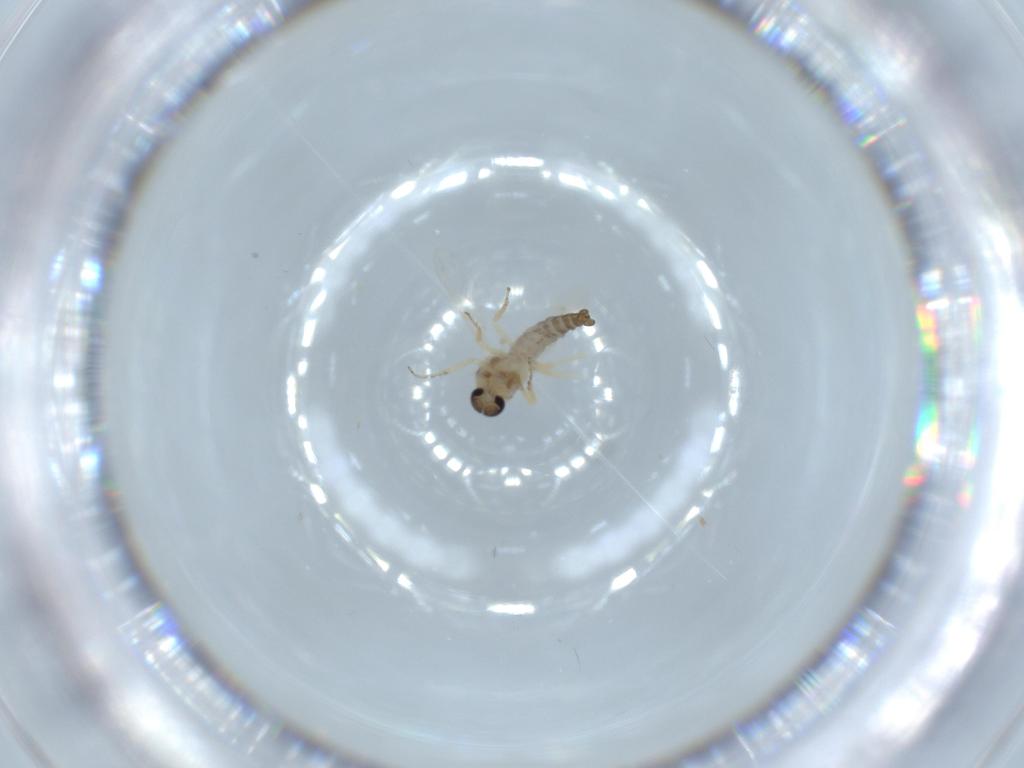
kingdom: Animalia
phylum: Arthropoda
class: Insecta
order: Diptera
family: Ceratopogonidae
